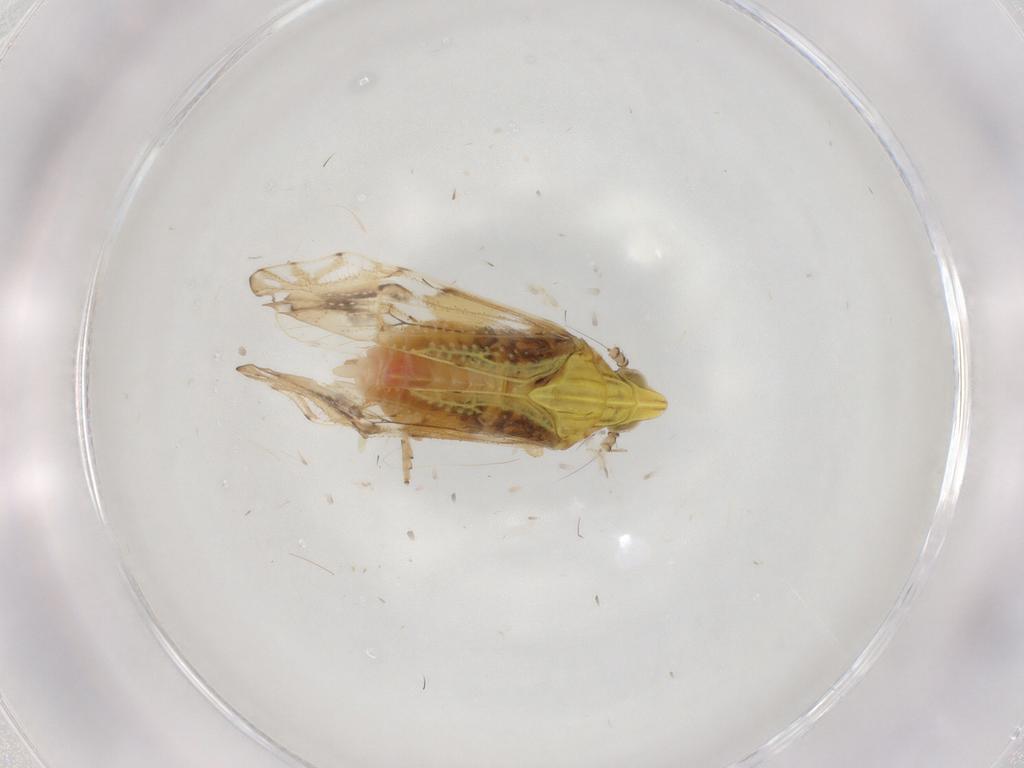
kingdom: Animalia
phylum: Arthropoda
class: Insecta
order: Hemiptera
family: Delphacidae
